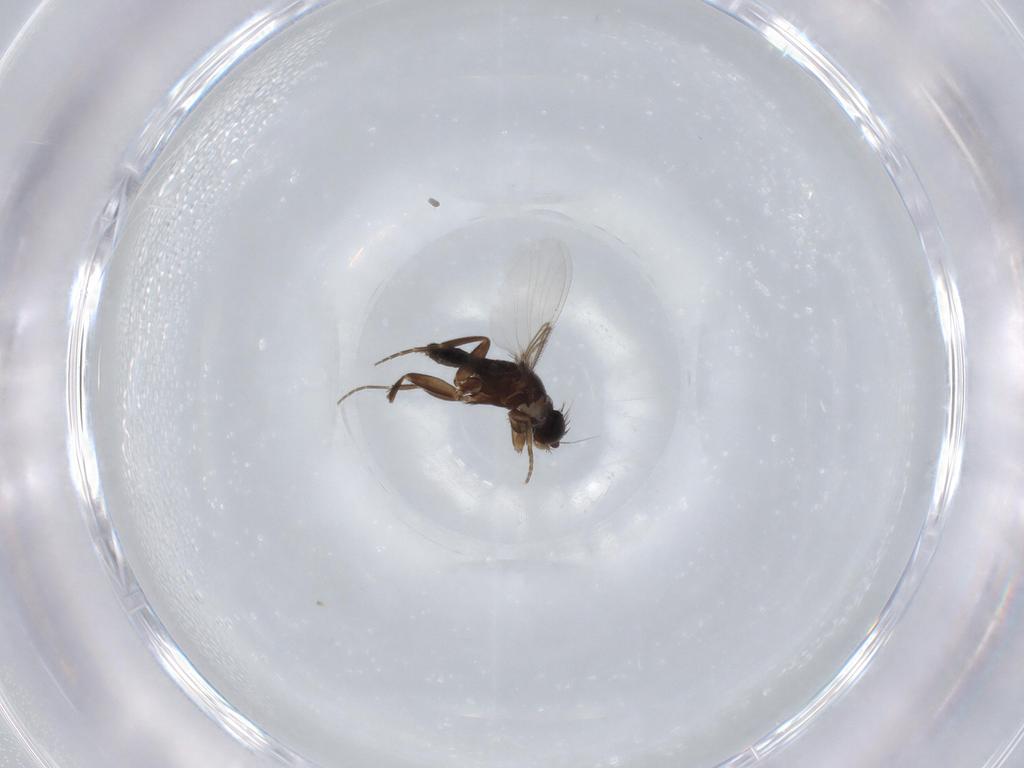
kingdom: Animalia
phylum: Arthropoda
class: Insecta
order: Diptera
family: Phoridae
